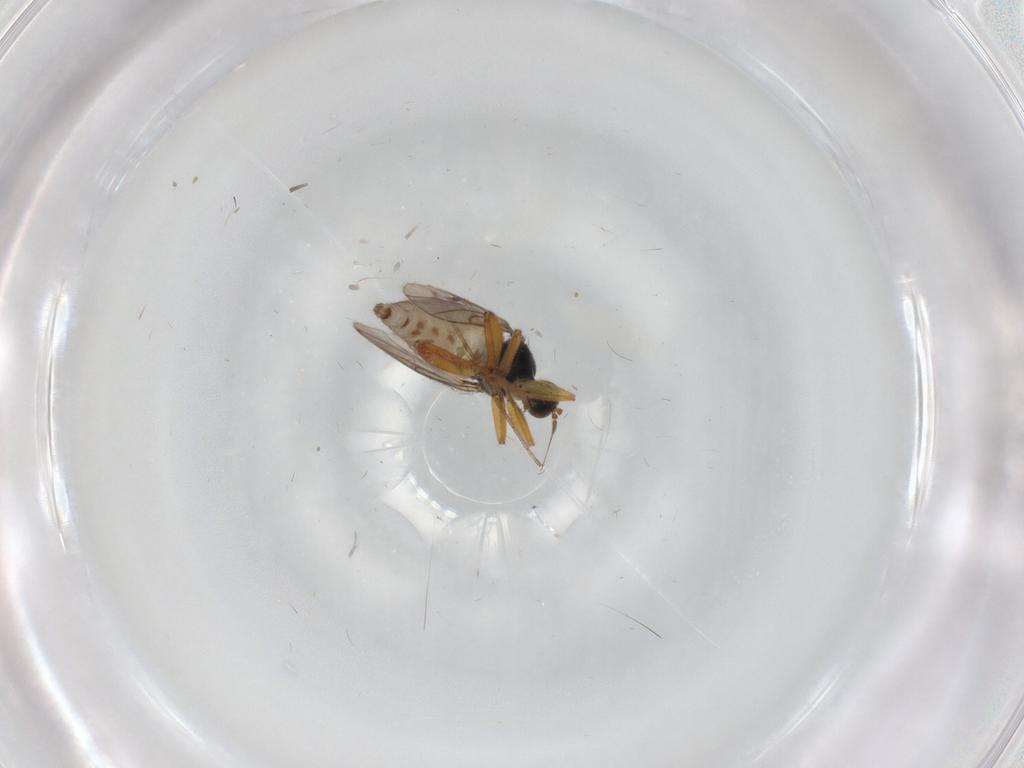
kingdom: Animalia
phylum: Arthropoda
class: Insecta
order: Diptera
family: Hybotidae
